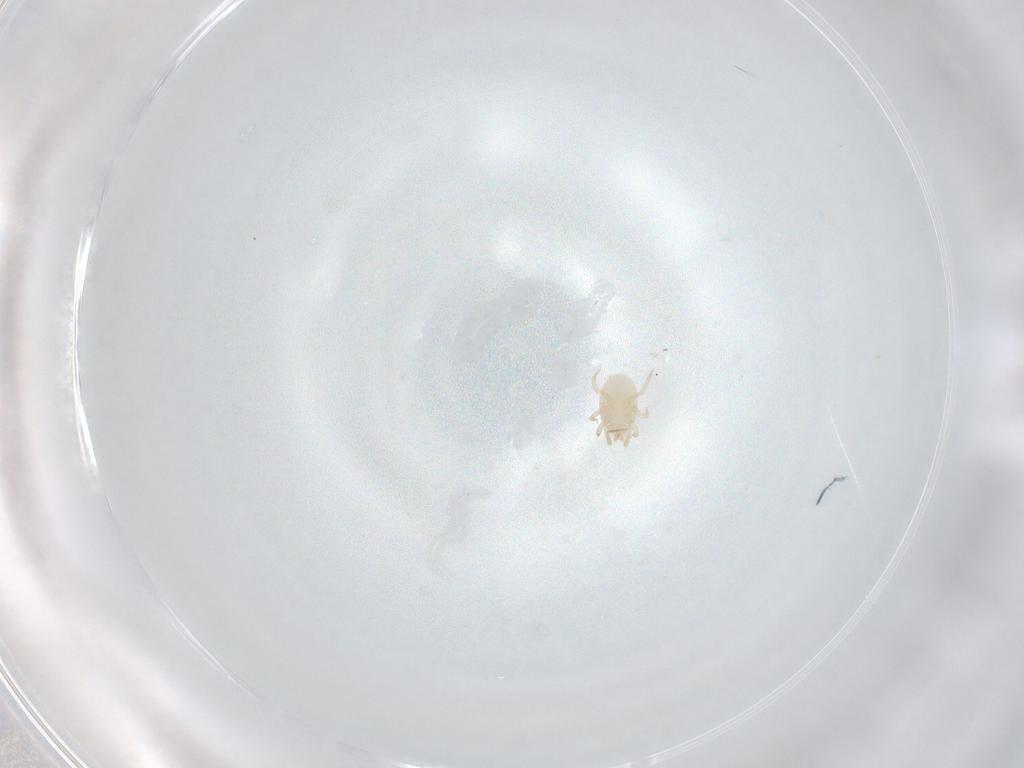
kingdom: Animalia
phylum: Arthropoda
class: Arachnida
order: Mesostigmata
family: Melicharidae
